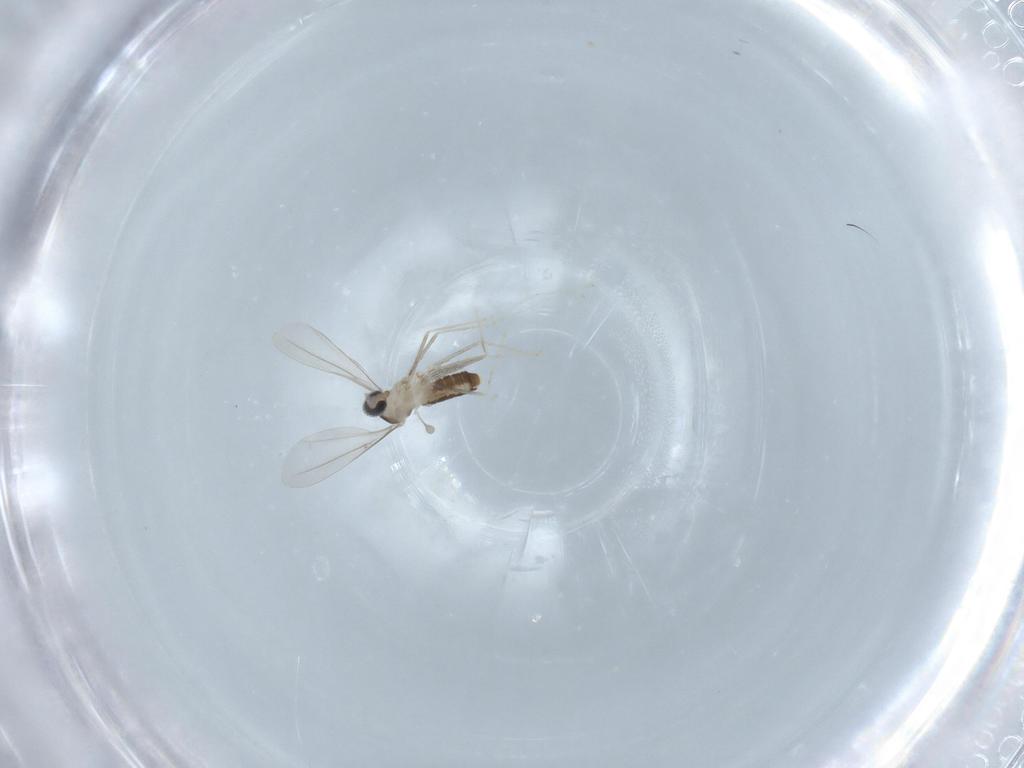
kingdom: Animalia
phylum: Arthropoda
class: Insecta
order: Diptera
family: Cecidomyiidae
